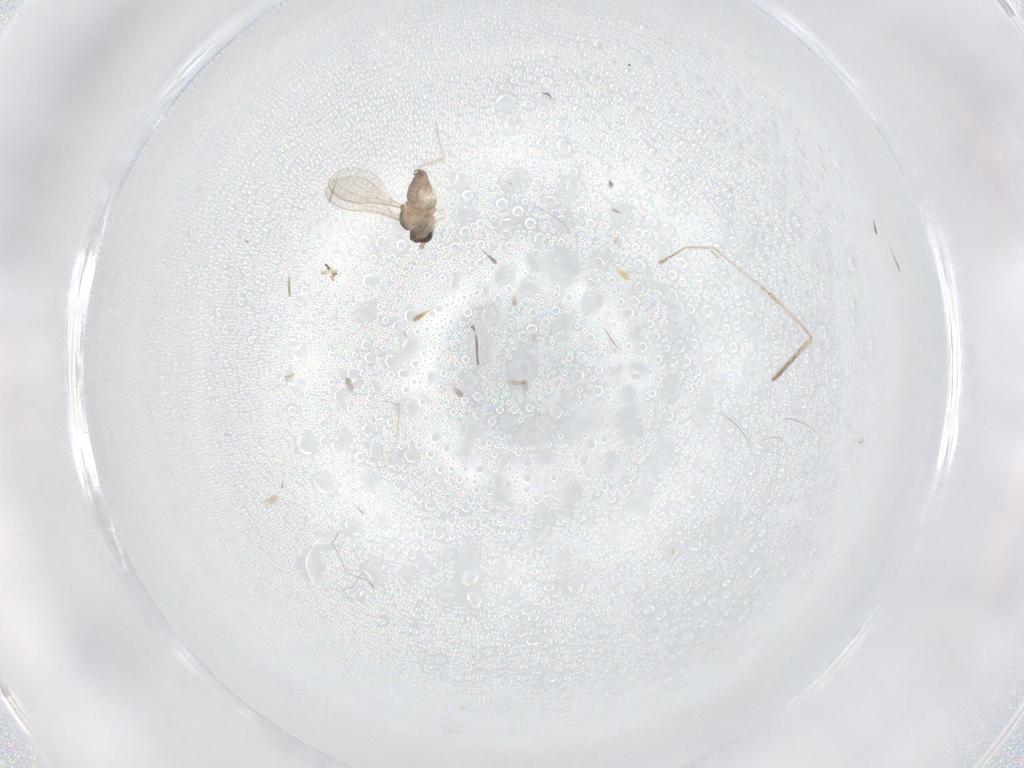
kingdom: Animalia
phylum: Arthropoda
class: Insecta
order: Diptera
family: Cecidomyiidae
